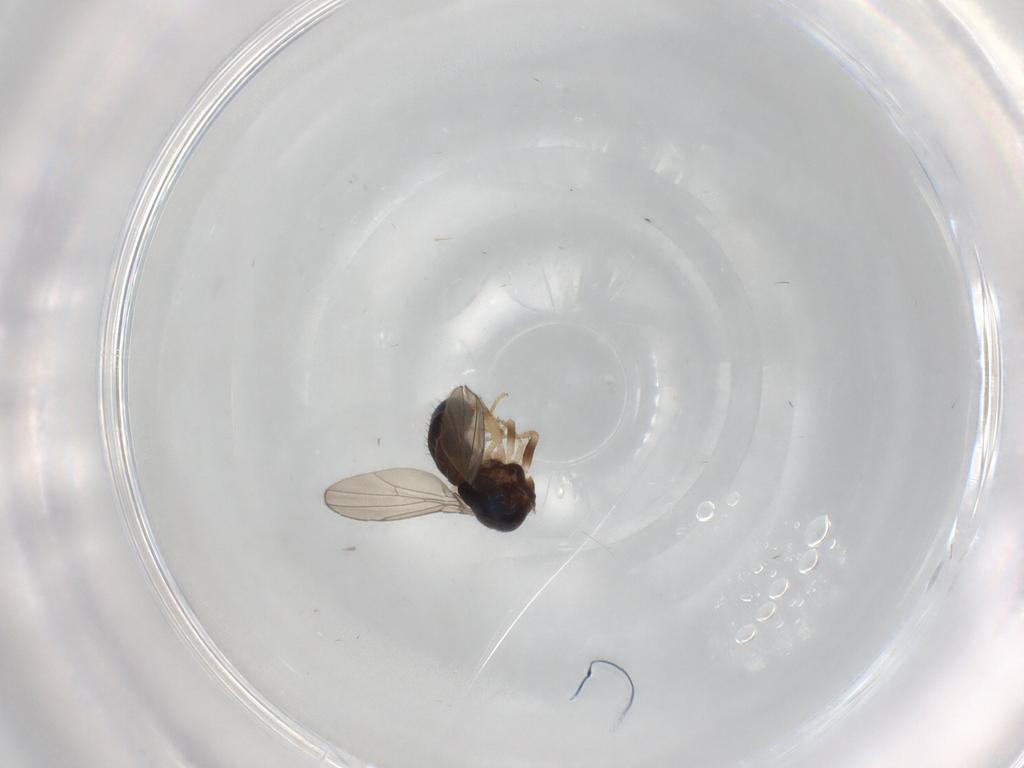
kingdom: Animalia
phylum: Arthropoda
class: Insecta
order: Diptera
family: Drosophilidae
